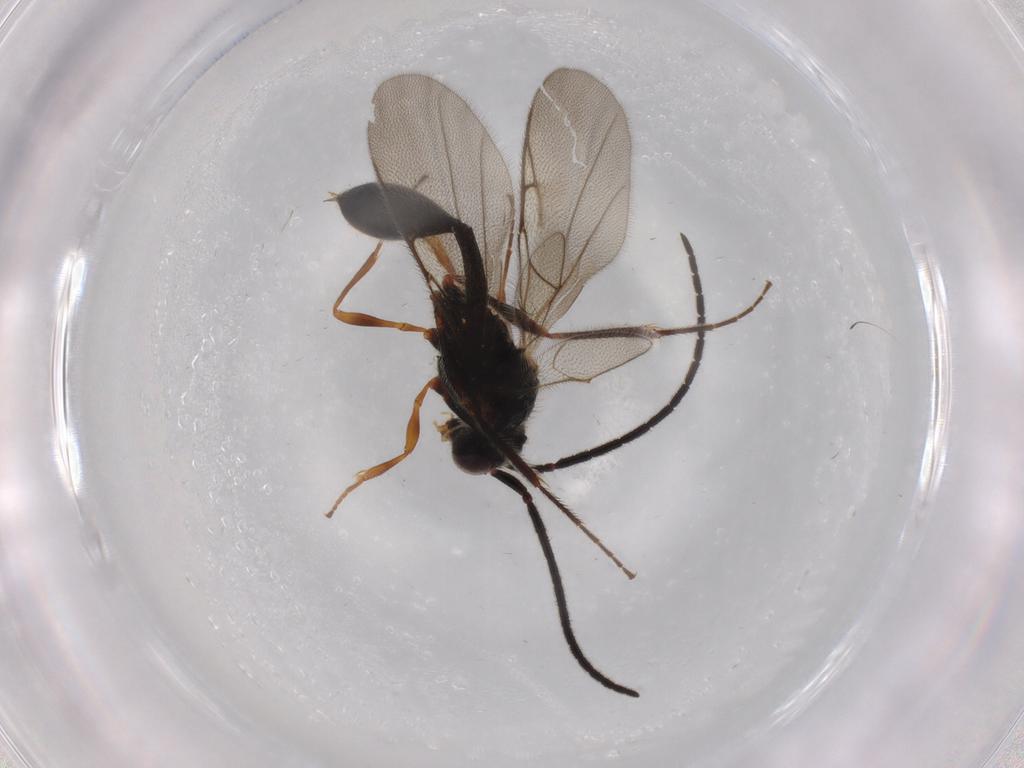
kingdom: Animalia
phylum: Arthropoda
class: Insecta
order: Hymenoptera
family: Diapriidae
